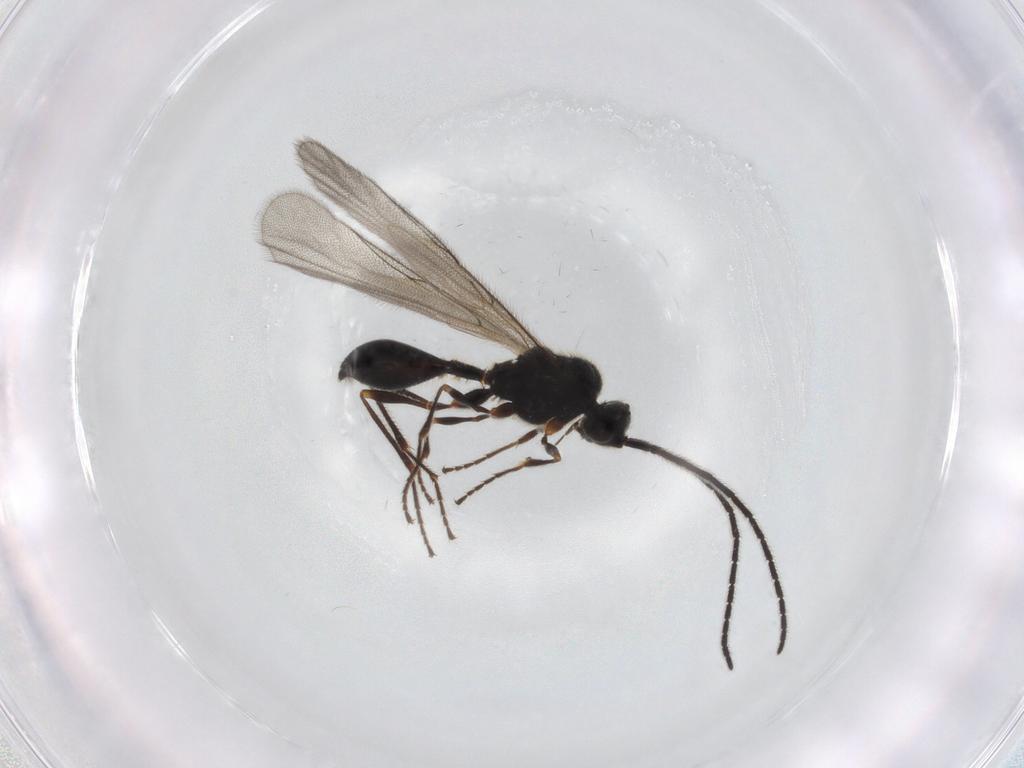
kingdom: Animalia
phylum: Arthropoda
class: Insecta
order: Hymenoptera
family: Diapriidae
